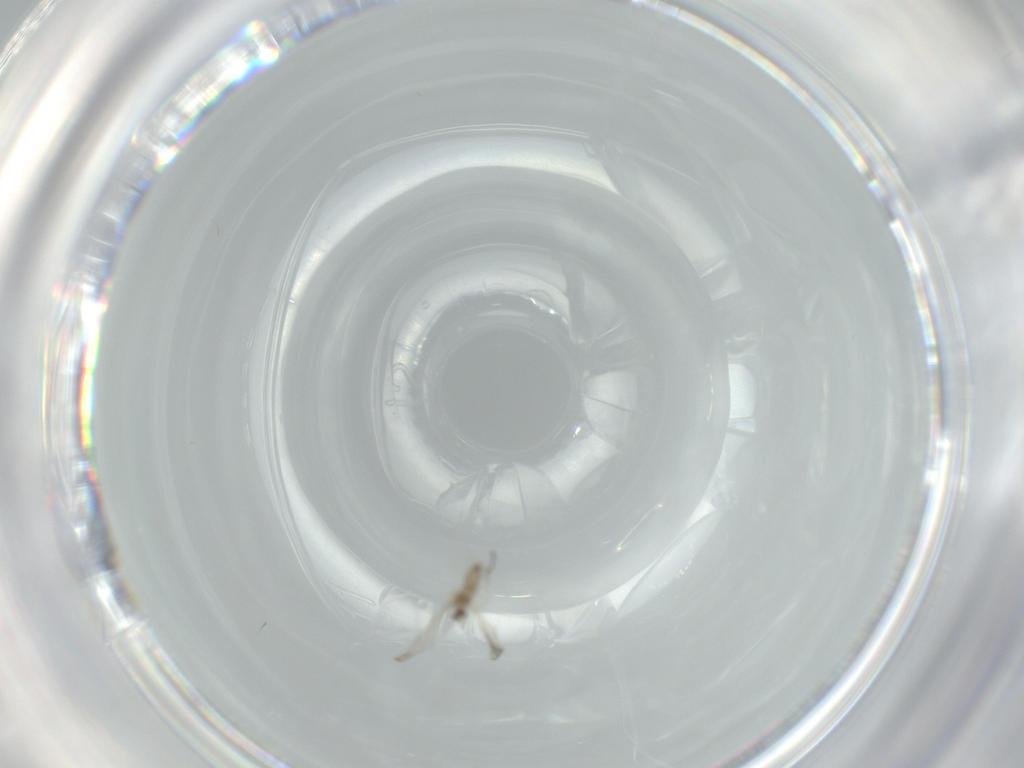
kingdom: Animalia
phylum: Arthropoda
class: Insecta
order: Diptera
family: Cecidomyiidae
